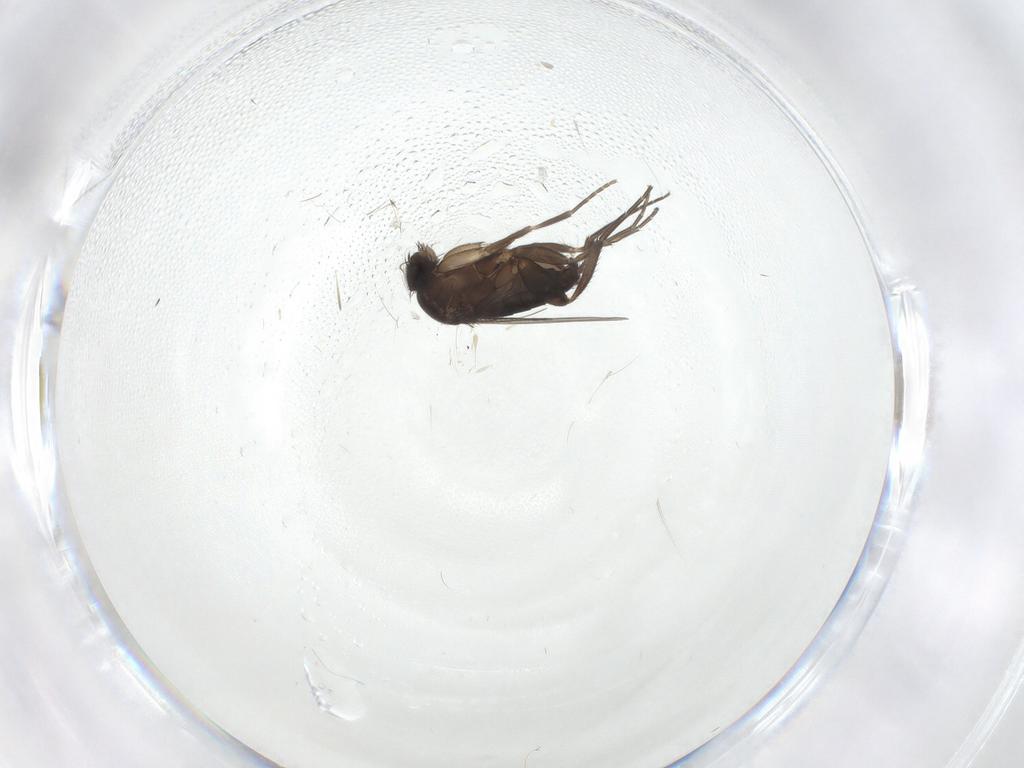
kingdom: Animalia
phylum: Arthropoda
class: Insecta
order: Diptera
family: Phoridae
